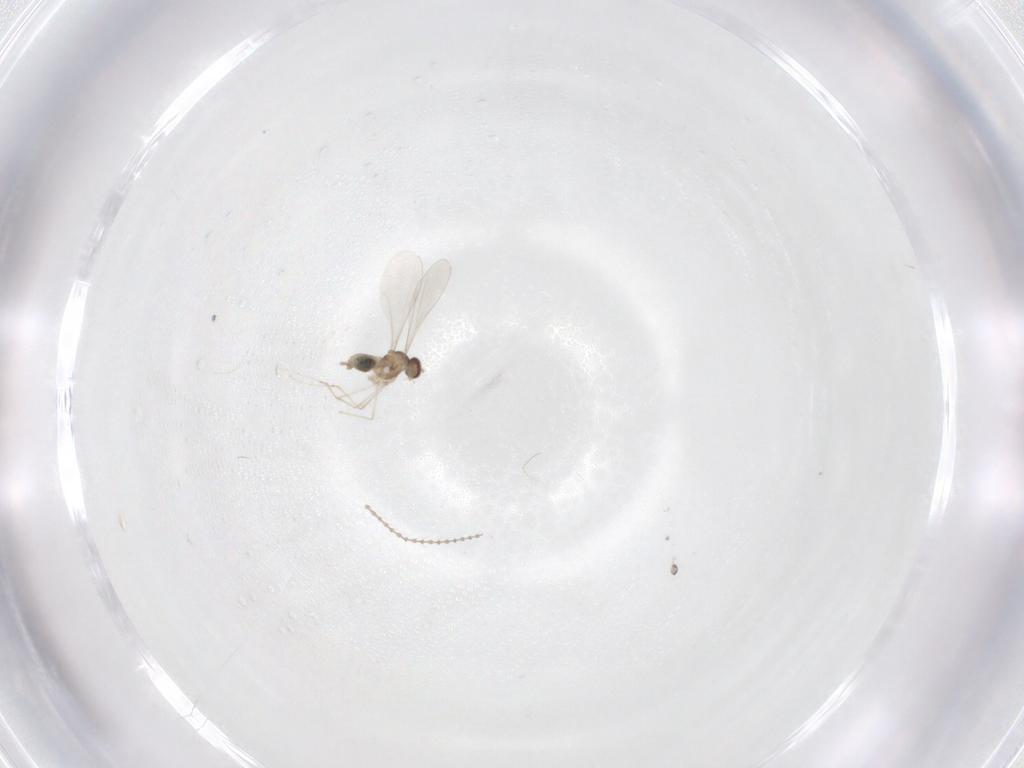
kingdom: Animalia
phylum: Arthropoda
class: Insecta
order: Diptera
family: Cecidomyiidae
